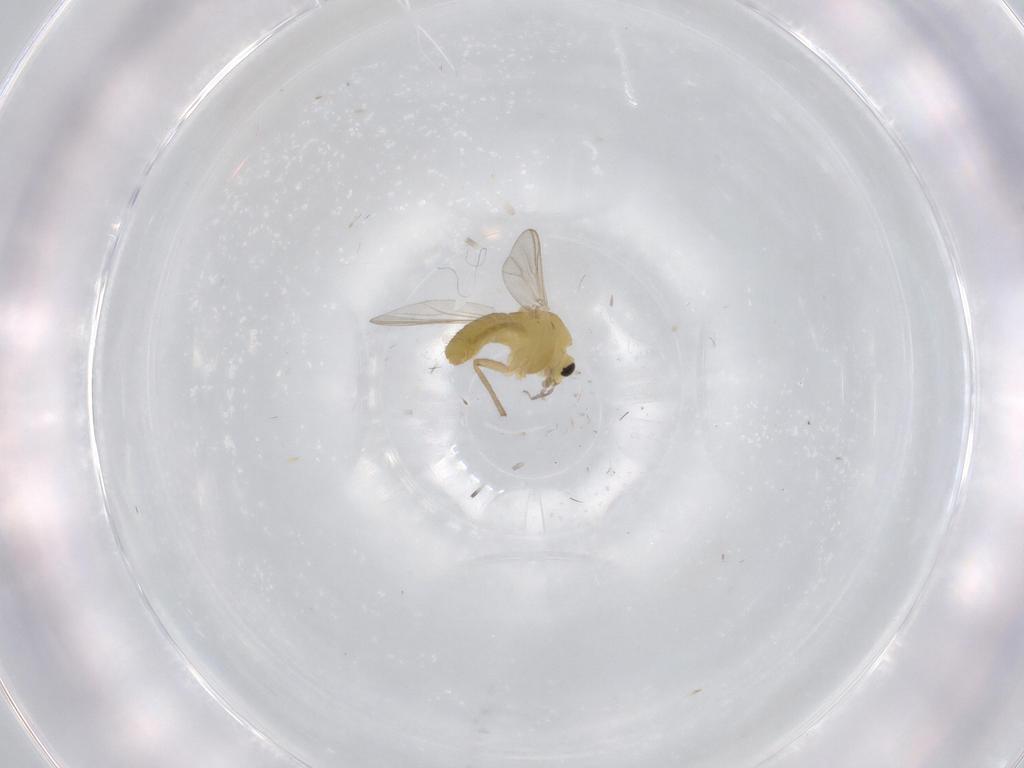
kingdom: Animalia
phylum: Arthropoda
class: Insecta
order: Diptera
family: Chironomidae
